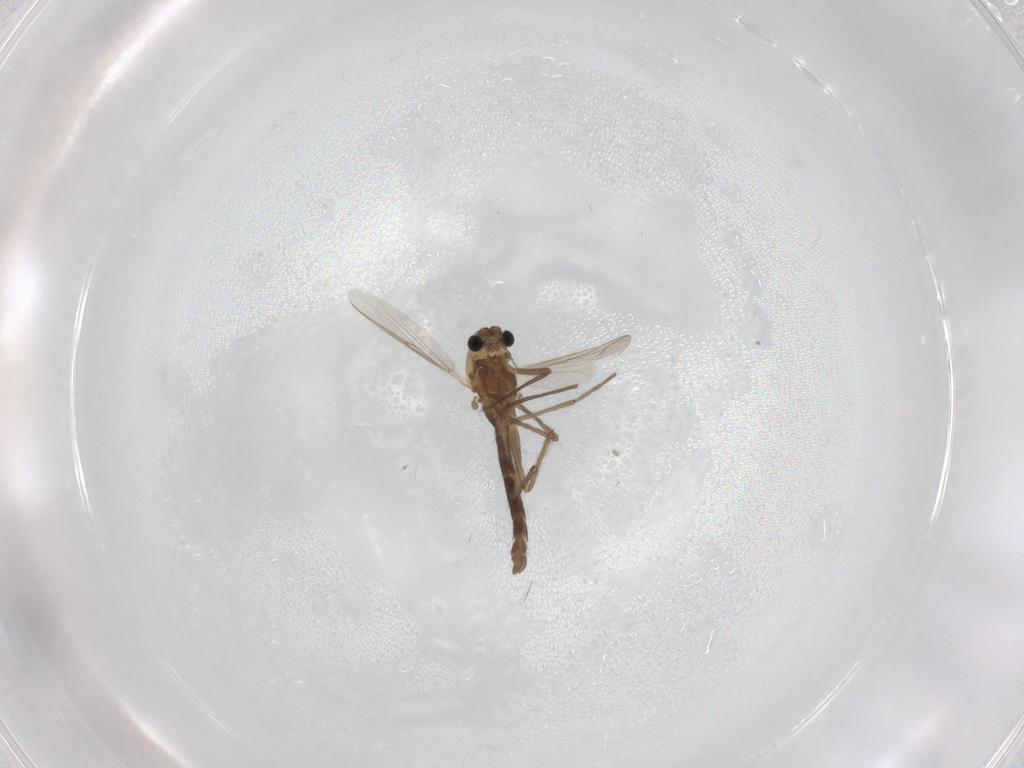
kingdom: Animalia
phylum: Arthropoda
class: Insecta
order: Diptera
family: Chironomidae
